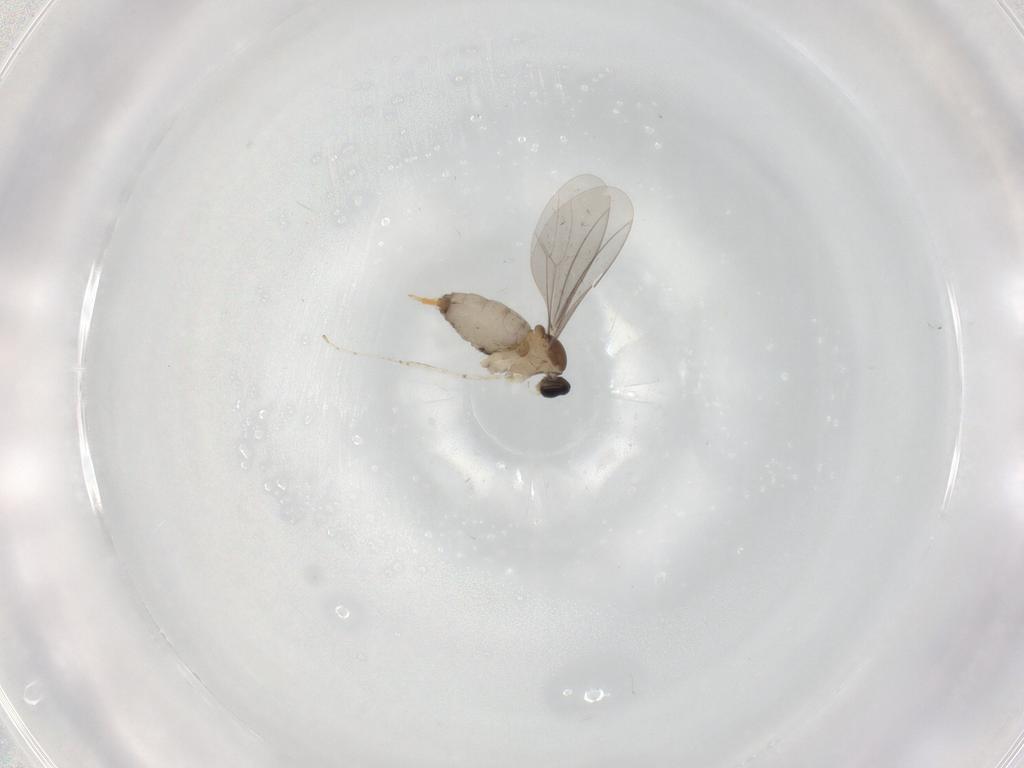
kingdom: Animalia
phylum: Arthropoda
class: Insecta
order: Diptera
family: Cecidomyiidae
